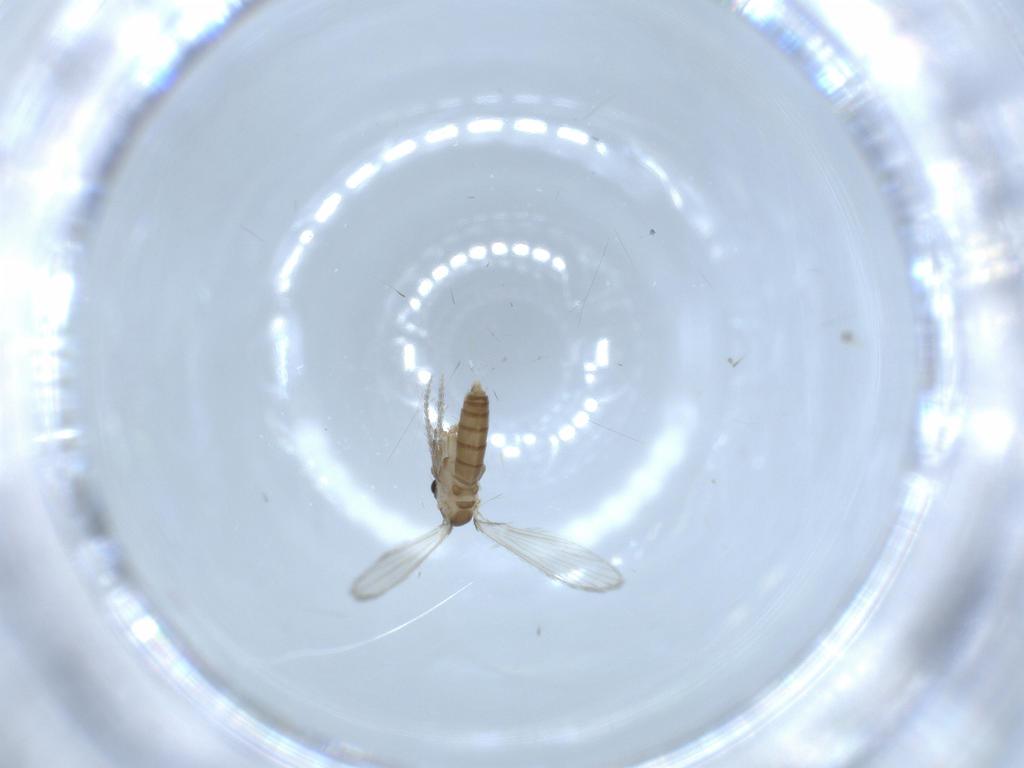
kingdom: Animalia
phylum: Arthropoda
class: Insecta
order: Diptera
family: Psychodidae
